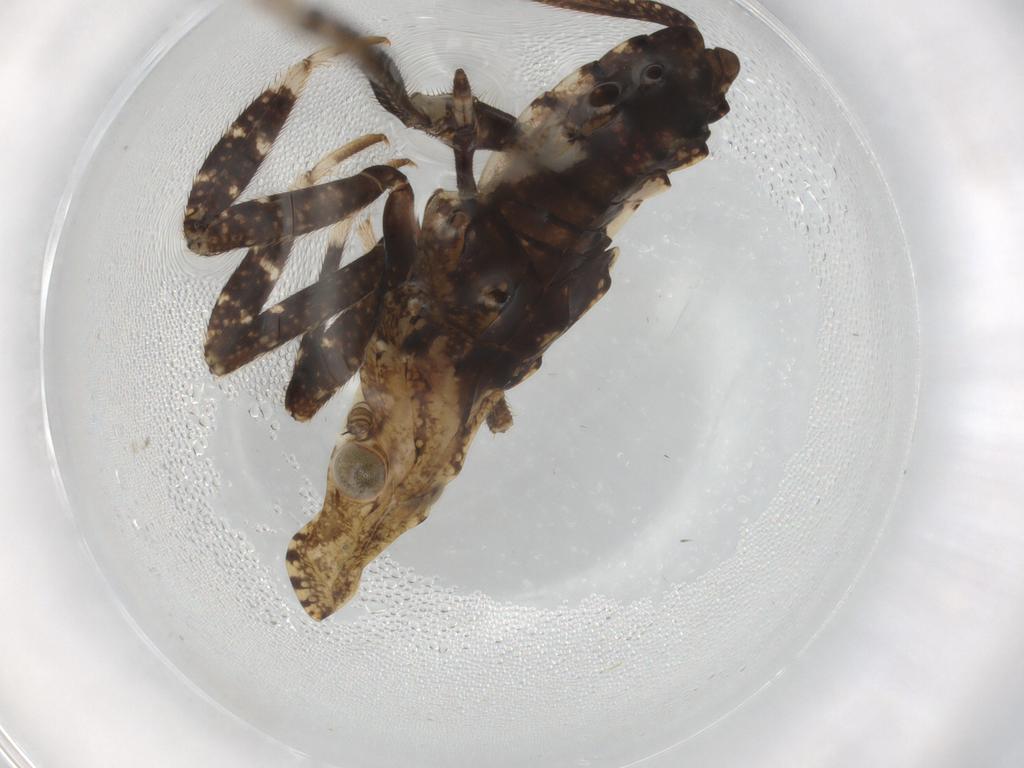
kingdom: Animalia
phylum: Arthropoda
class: Insecta
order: Hemiptera
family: Fulgoridae
